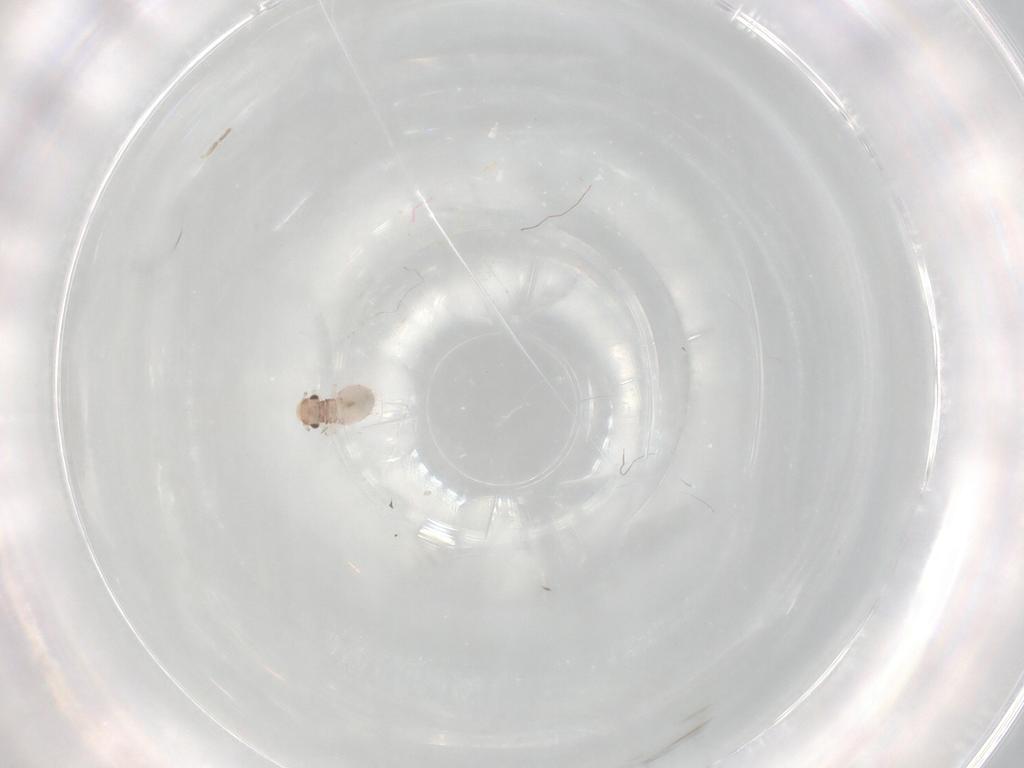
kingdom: Animalia
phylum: Arthropoda
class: Insecta
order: Psocodea
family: Trogiidae
